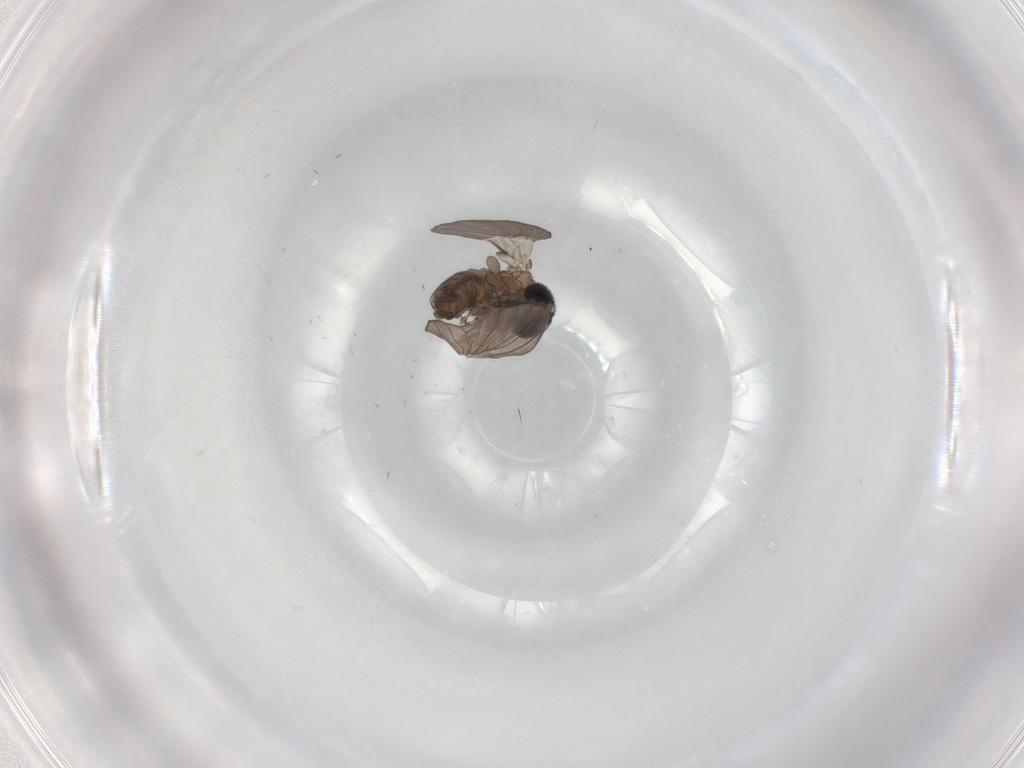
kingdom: Animalia
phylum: Arthropoda
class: Insecta
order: Diptera
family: Psychodidae
